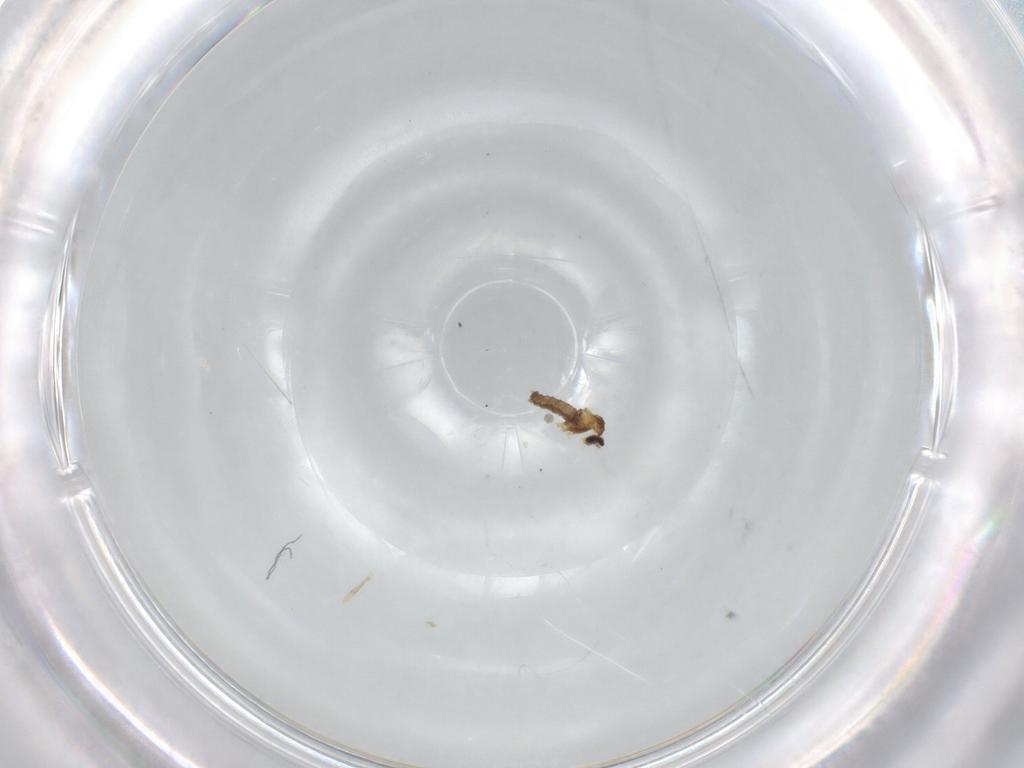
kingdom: Animalia
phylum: Arthropoda
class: Insecta
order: Diptera
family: Cecidomyiidae
